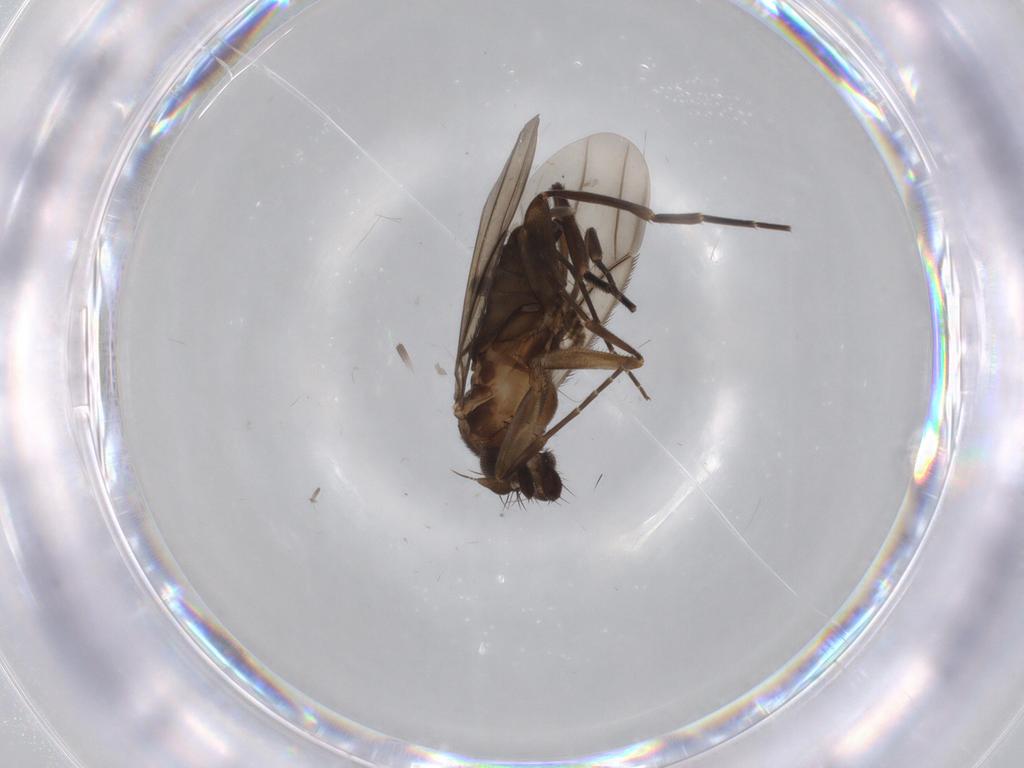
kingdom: Animalia
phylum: Arthropoda
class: Insecta
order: Diptera
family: Phoridae
